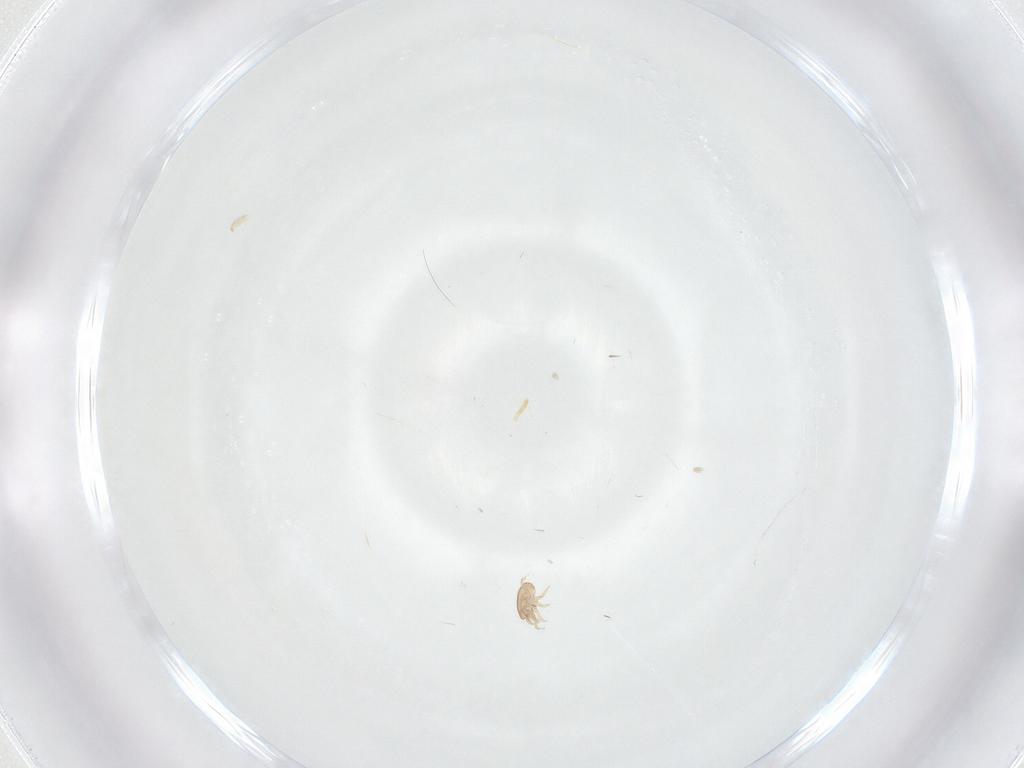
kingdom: Animalia
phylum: Arthropoda
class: Arachnida
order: Mesostigmata
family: Ascidae
